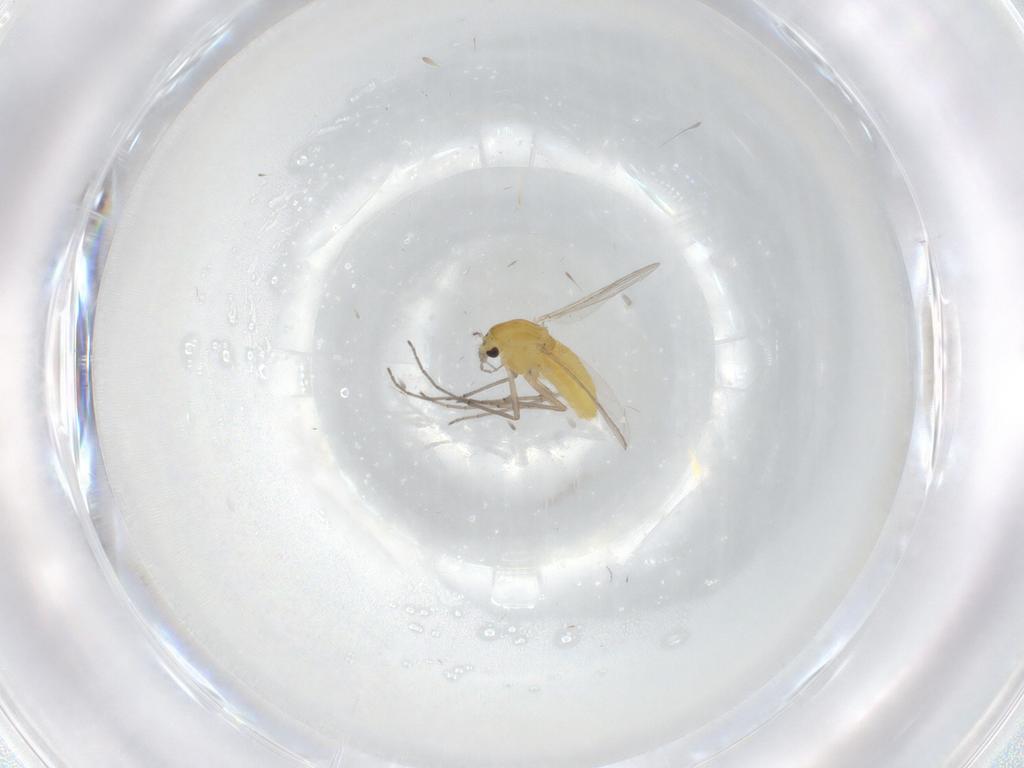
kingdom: Animalia
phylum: Arthropoda
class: Insecta
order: Diptera
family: Chironomidae
